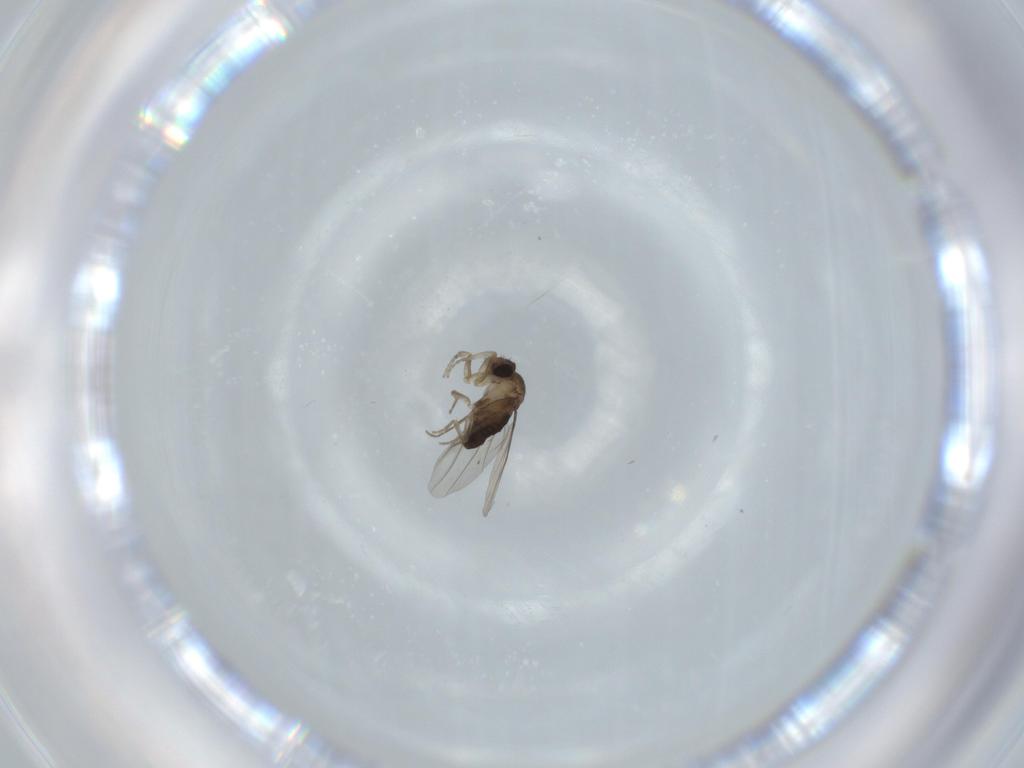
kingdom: Animalia
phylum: Arthropoda
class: Insecta
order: Diptera
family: Phoridae
